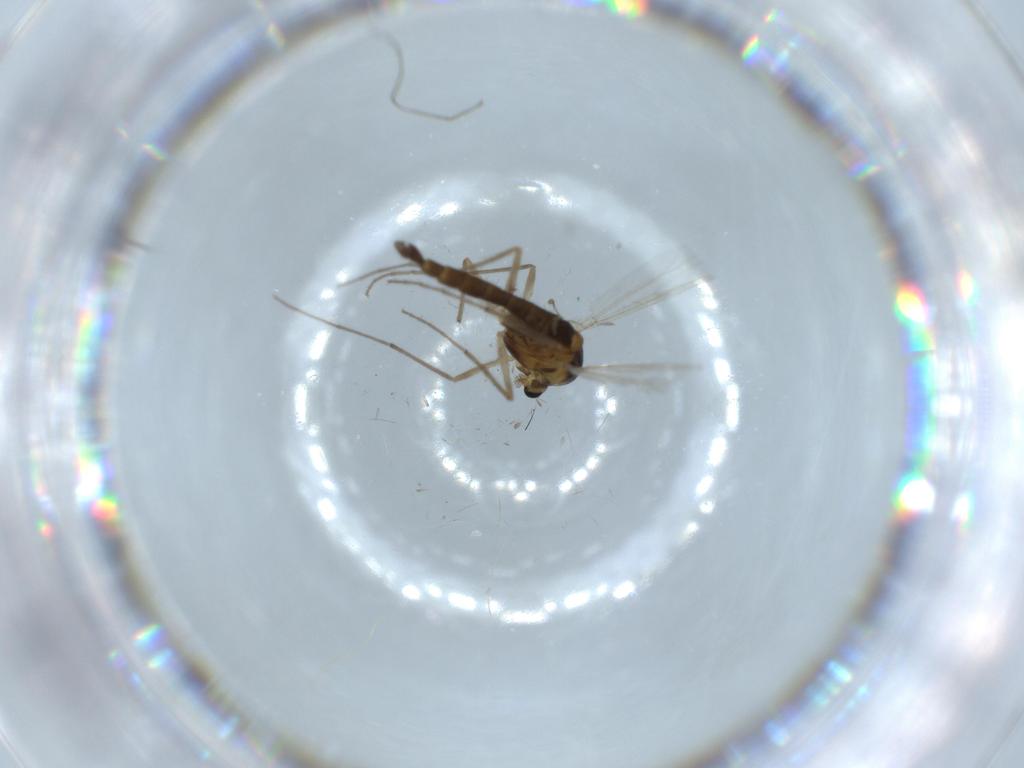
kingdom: Animalia
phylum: Arthropoda
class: Insecta
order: Diptera
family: Chironomidae
